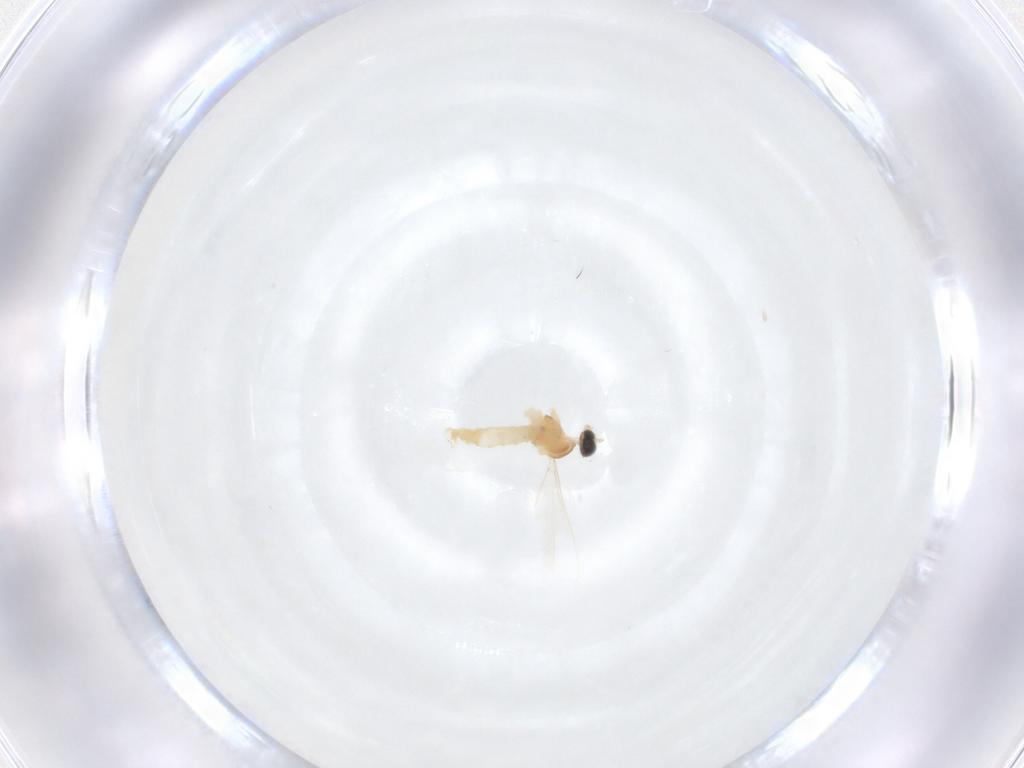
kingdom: Animalia
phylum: Arthropoda
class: Insecta
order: Diptera
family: Cecidomyiidae
